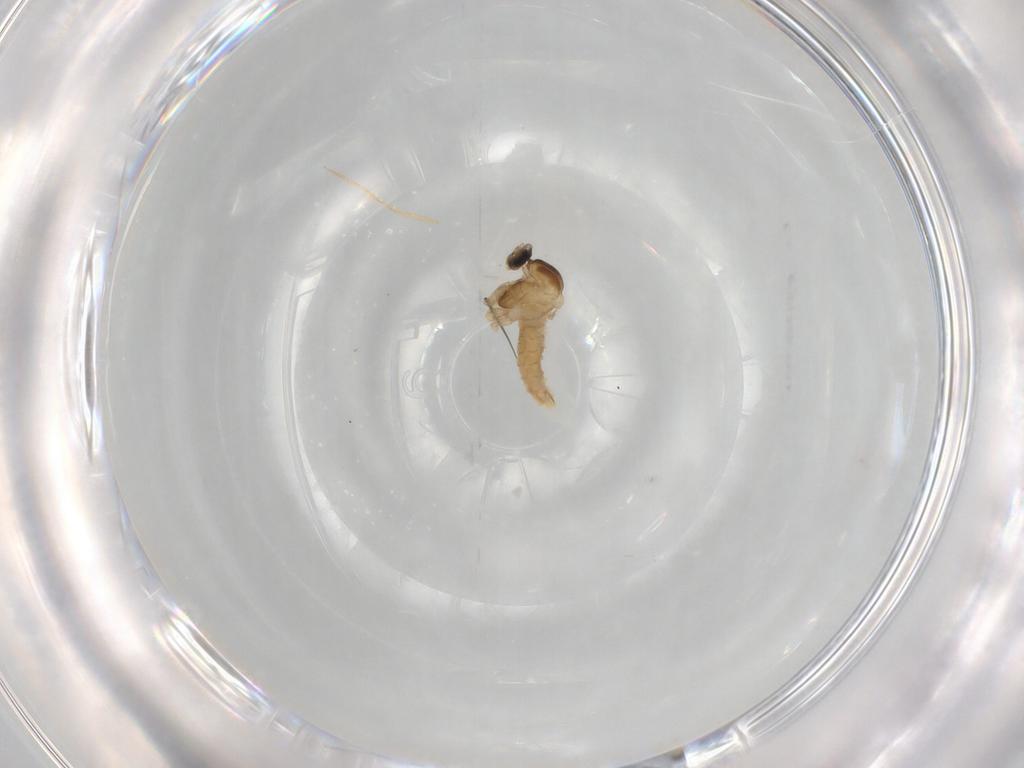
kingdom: Animalia
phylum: Arthropoda
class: Insecta
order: Diptera
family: Cecidomyiidae
